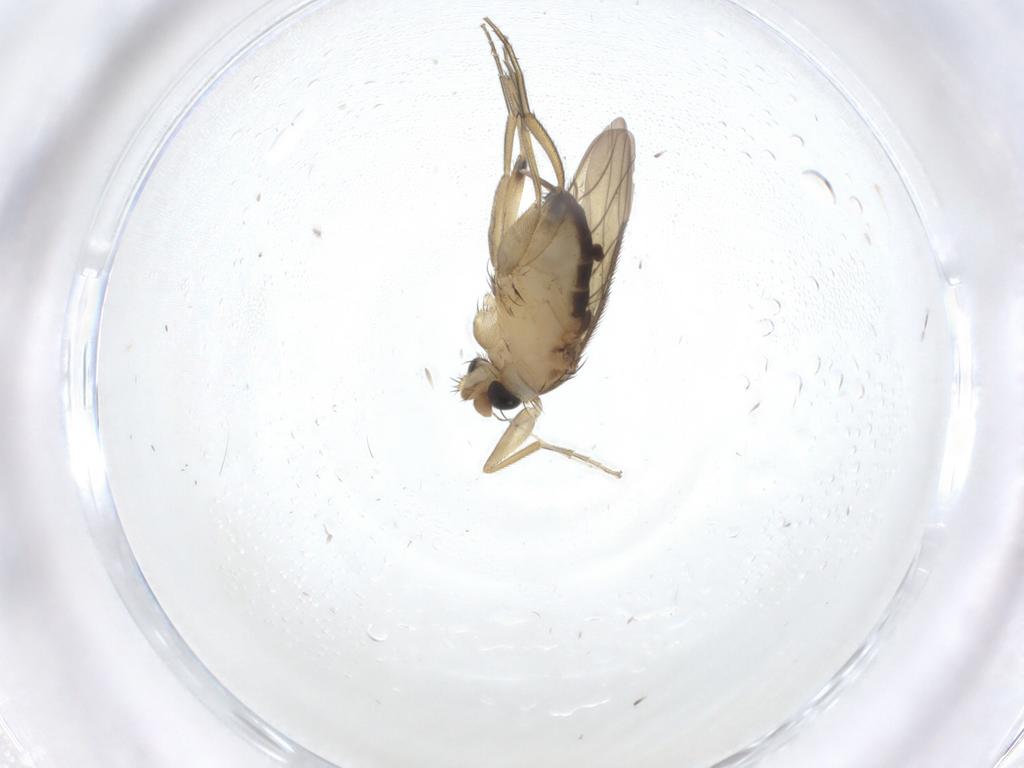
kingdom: Animalia
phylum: Arthropoda
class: Insecta
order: Diptera
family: Phoridae
